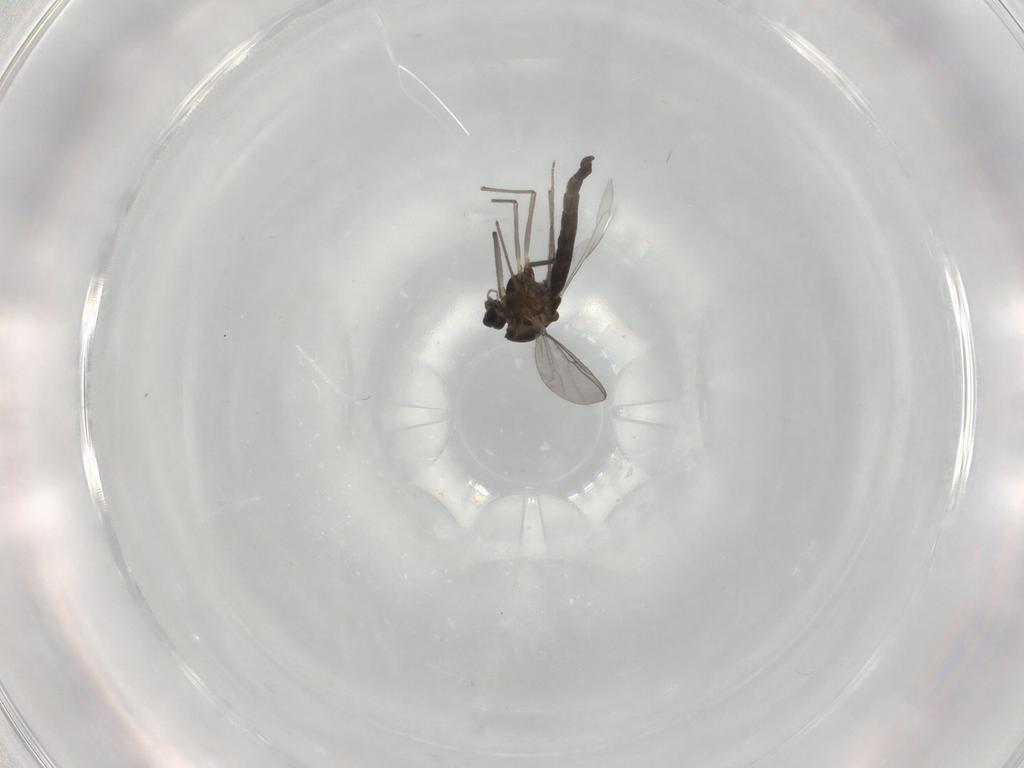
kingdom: Animalia
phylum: Arthropoda
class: Insecta
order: Diptera
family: Chironomidae
